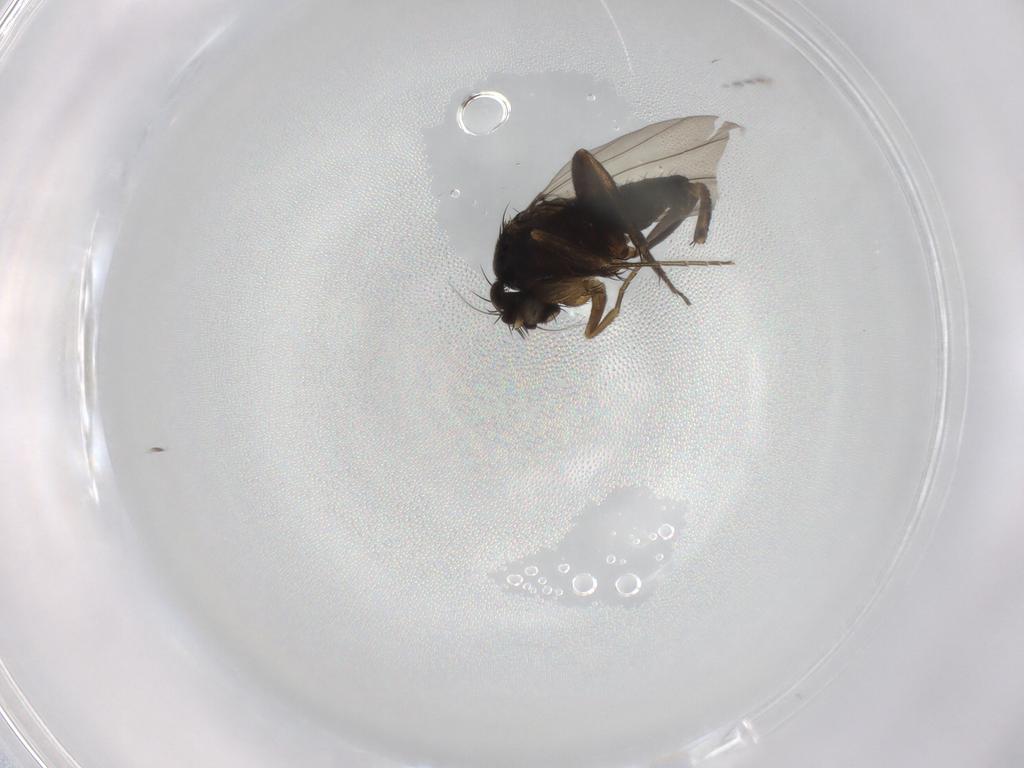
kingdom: Animalia
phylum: Arthropoda
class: Insecta
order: Diptera
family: Phoridae
